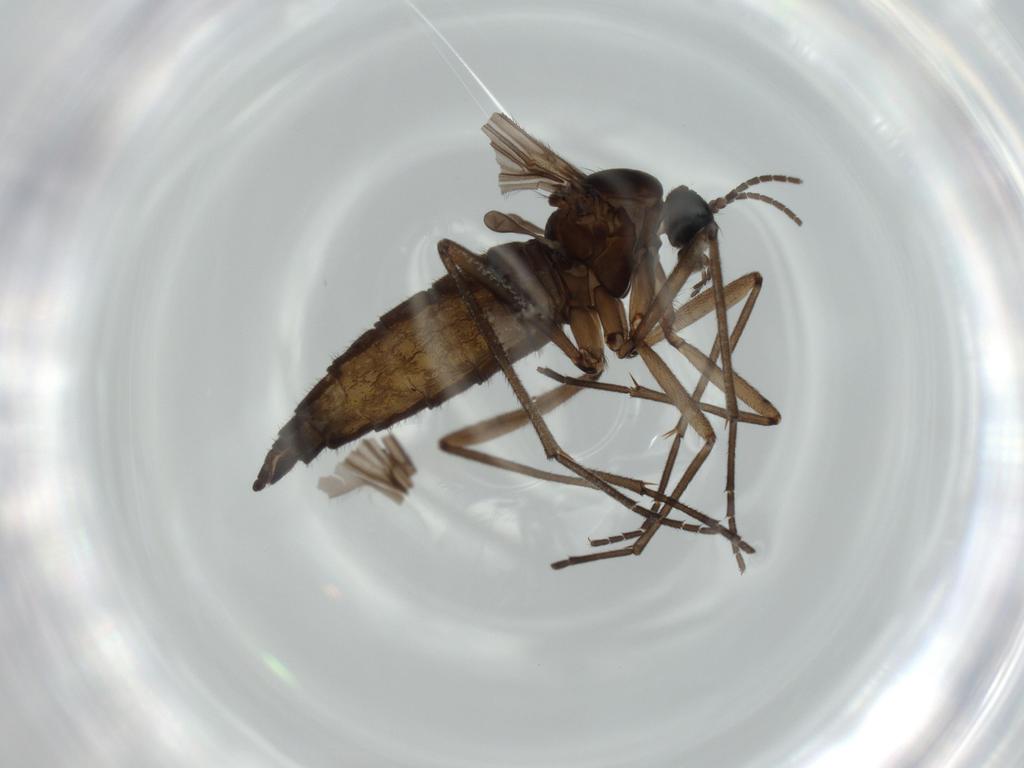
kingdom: Animalia
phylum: Arthropoda
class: Insecta
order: Diptera
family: Sciaridae
